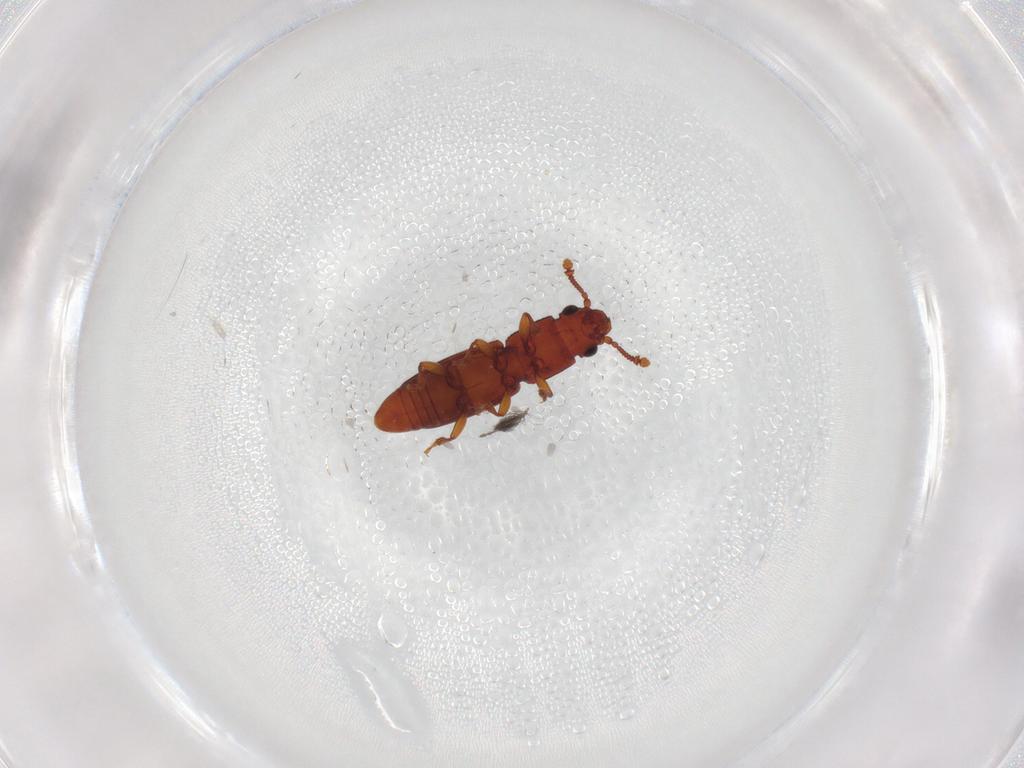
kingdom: Animalia
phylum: Arthropoda
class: Insecta
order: Coleoptera
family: Monotomidae
